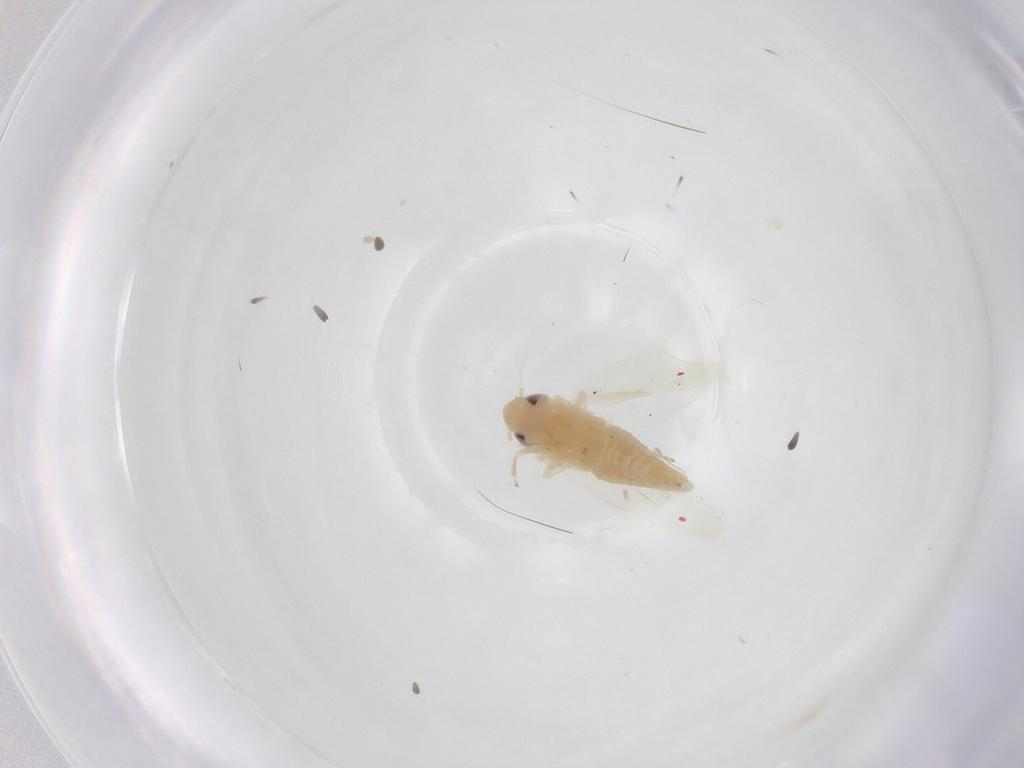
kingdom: Animalia
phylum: Arthropoda
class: Insecta
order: Hemiptera
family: Cicadellidae
